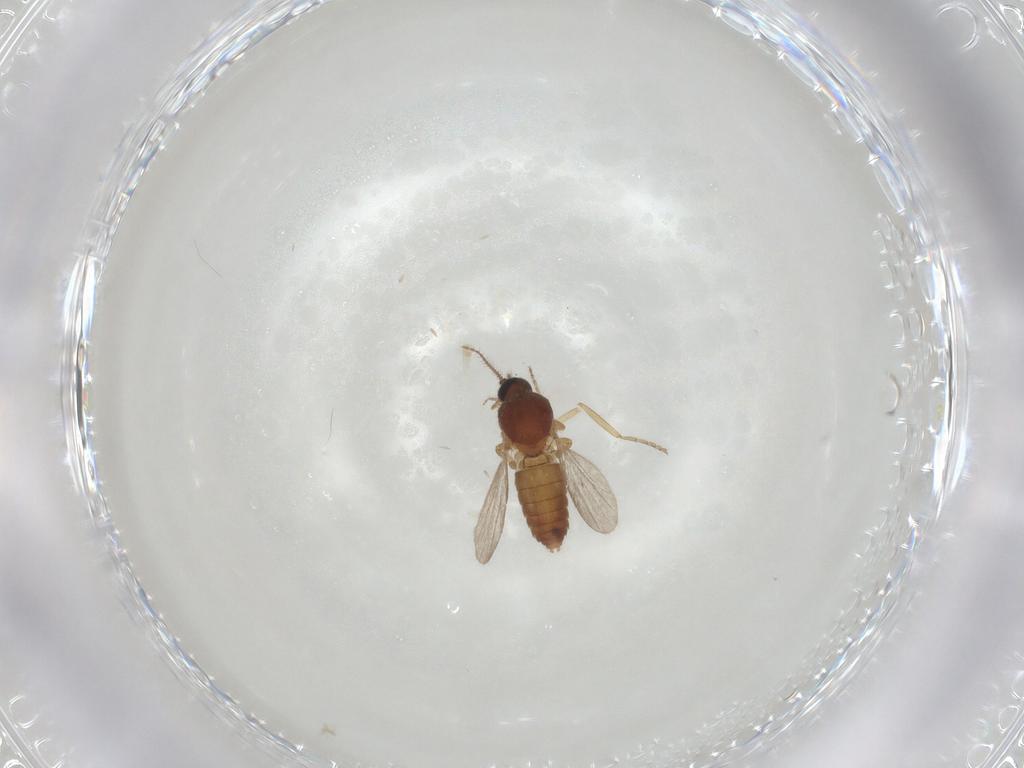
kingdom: Animalia
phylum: Arthropoda
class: Insecta
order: Diptera
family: Ceratopogonidae
